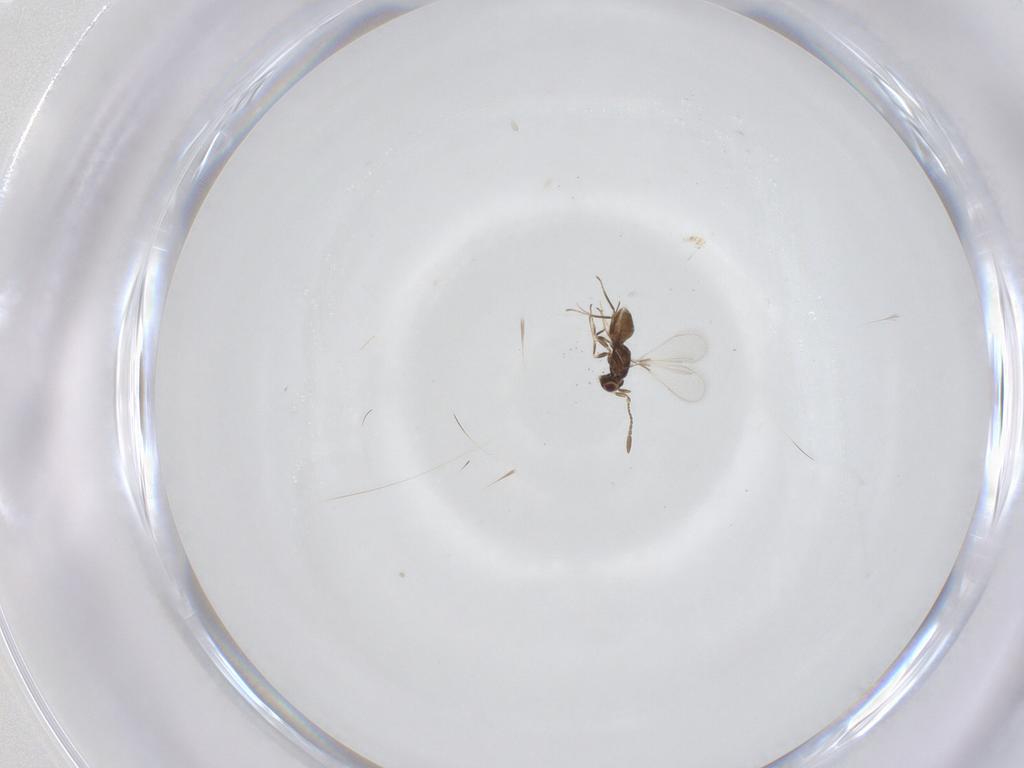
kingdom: Animalia
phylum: Arthropoda
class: Insecta
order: Hymenoptera
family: Mymaridae
